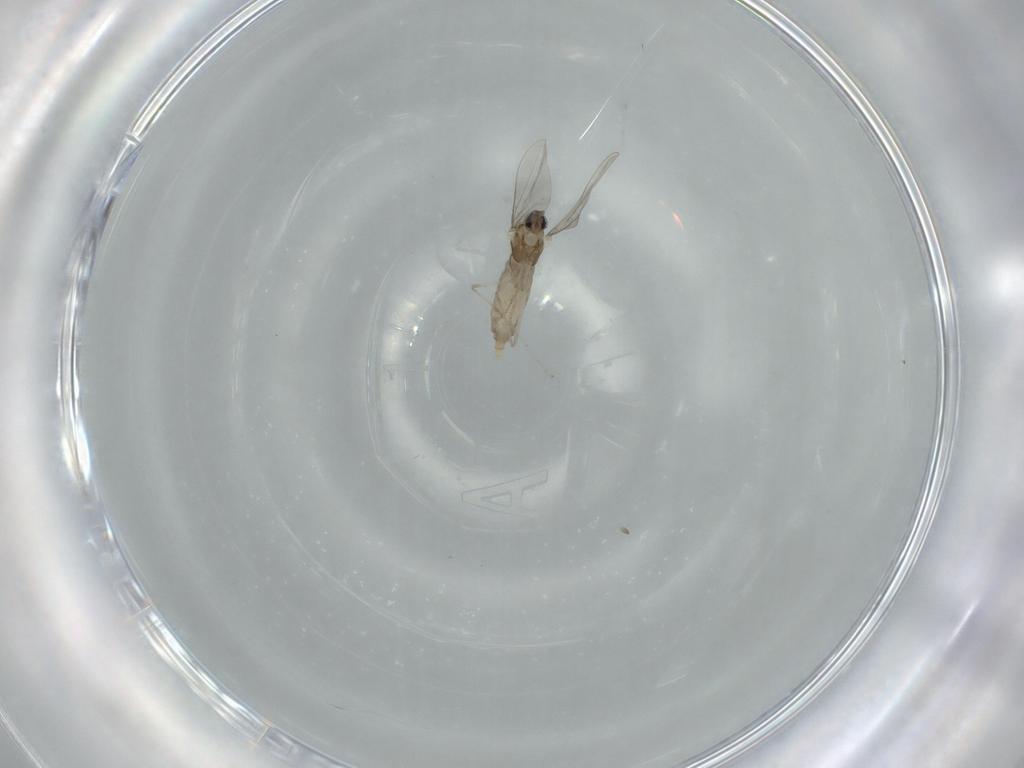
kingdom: Animalia
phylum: Arthropoda
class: Insecta
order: Diptera
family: Cecidomyiidae
